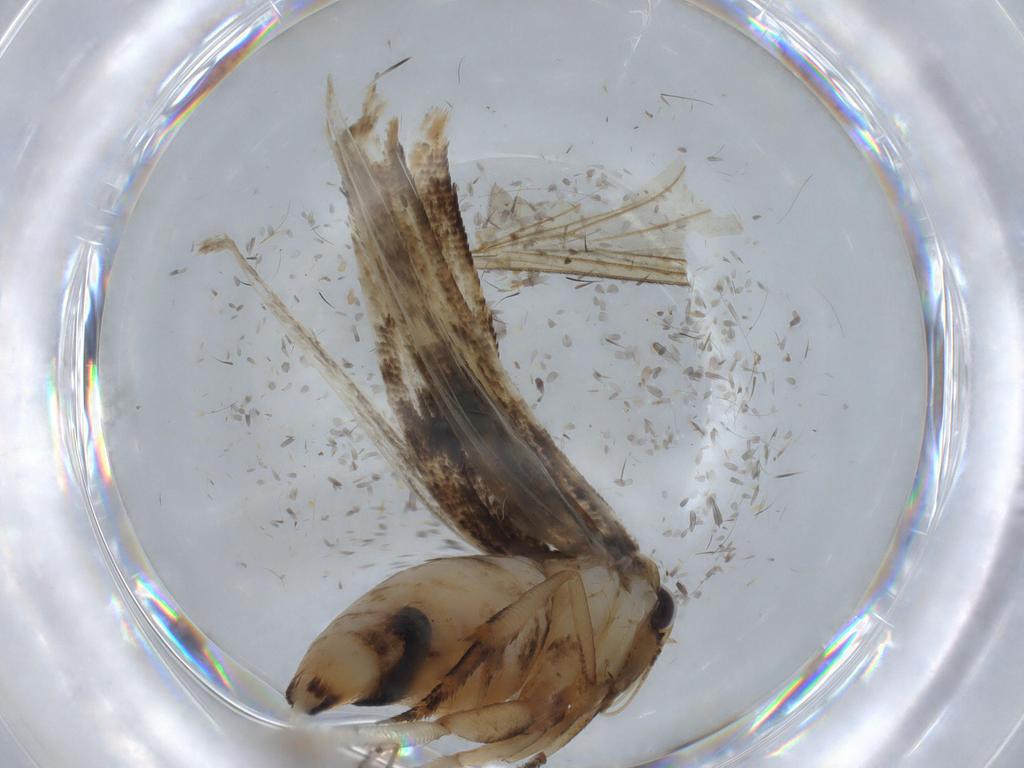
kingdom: Animalia
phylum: Arthropoda
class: Insecta
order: Lepidoptera
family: Cosmopterigidae
